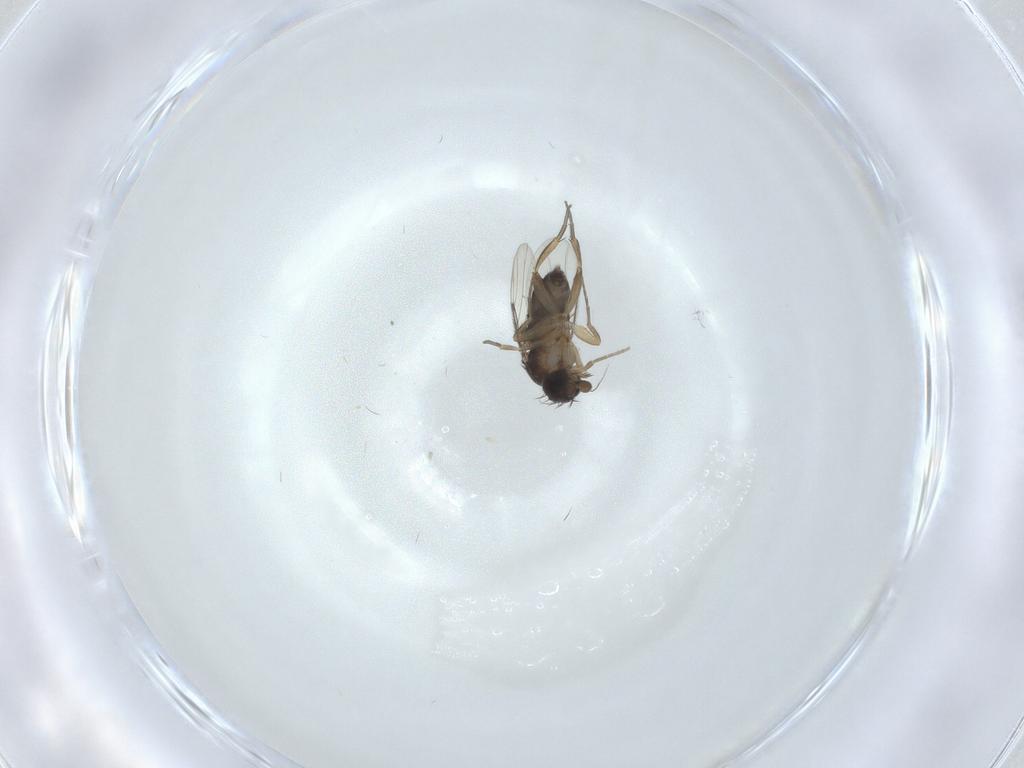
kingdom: Animalia
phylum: Arthropoda
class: Insecta
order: Diptera
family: Phoridae
